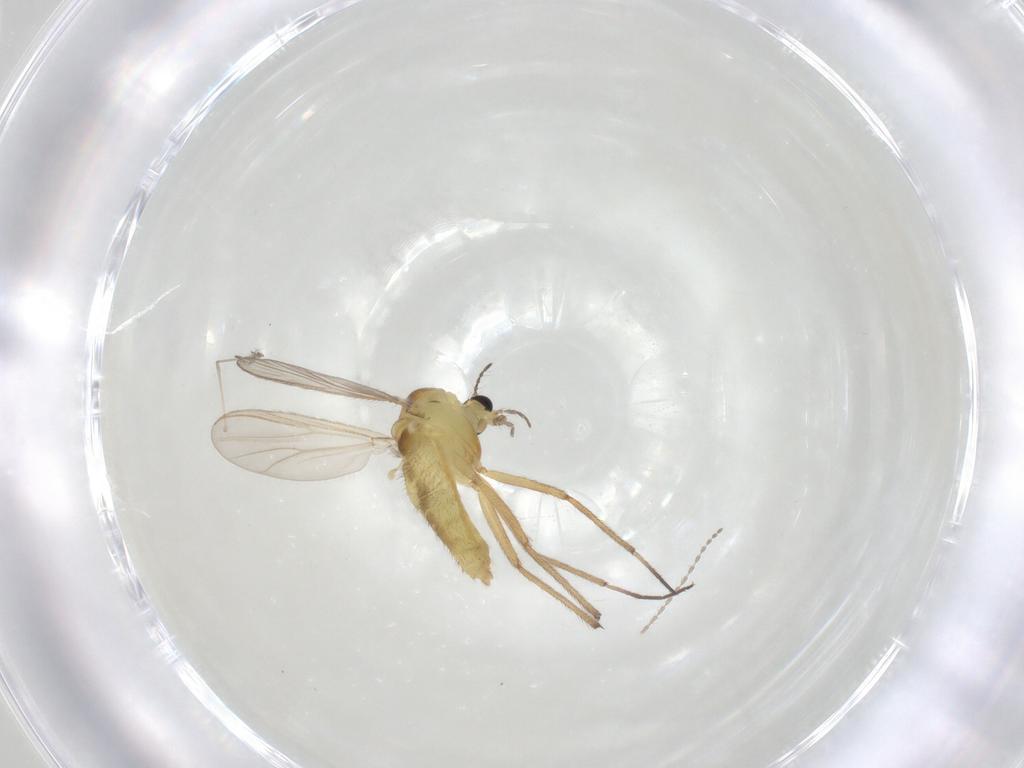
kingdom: Animalia
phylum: Arthropoda
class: Insecta
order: Diptera
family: Chironomidae
